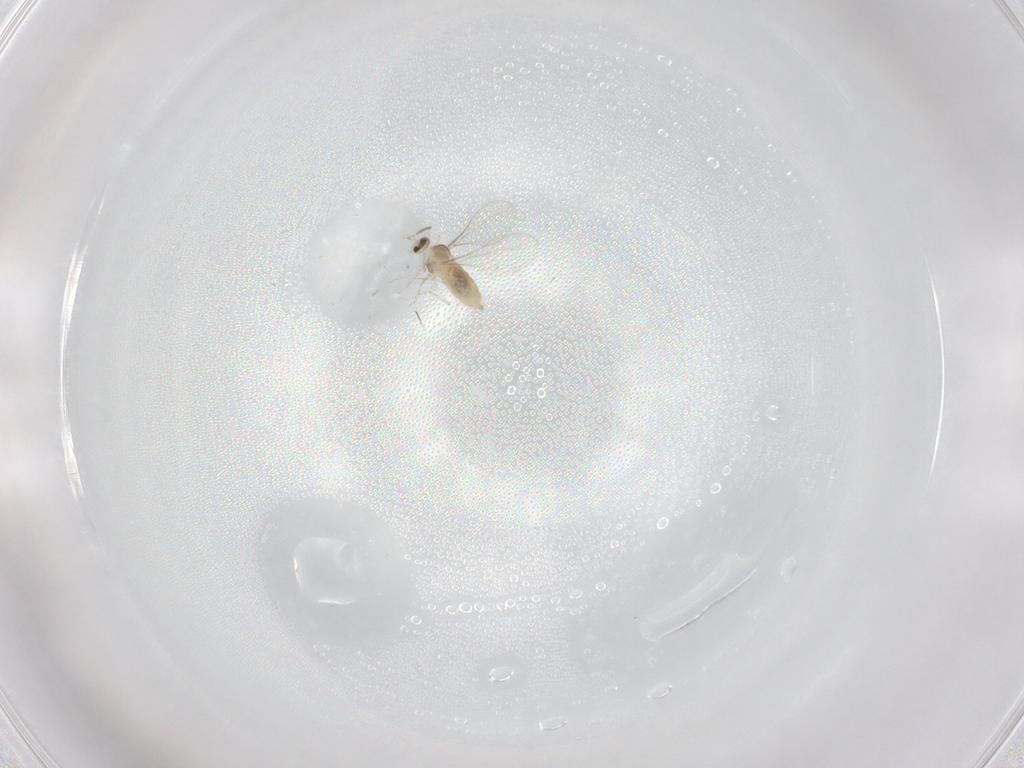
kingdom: Animalia
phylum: Arthropoda
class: Insecta
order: Diptera
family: Cecidomyiidae
